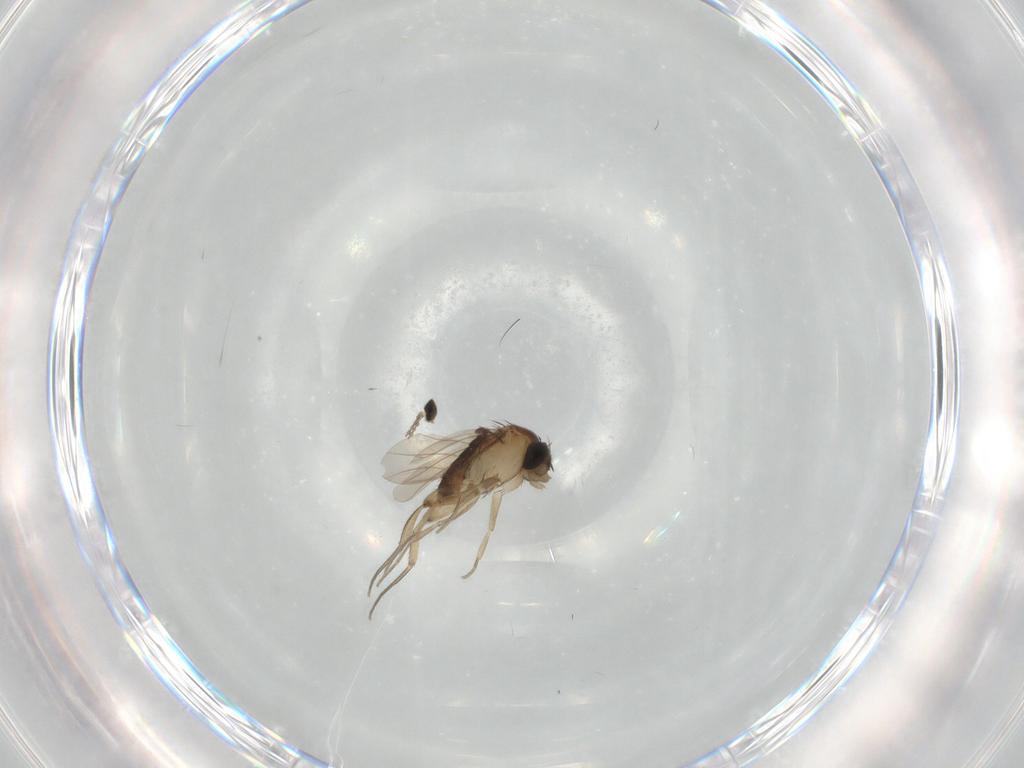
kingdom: Animalia
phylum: Arthropoda
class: Insecta
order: Diptera
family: Phoridae
